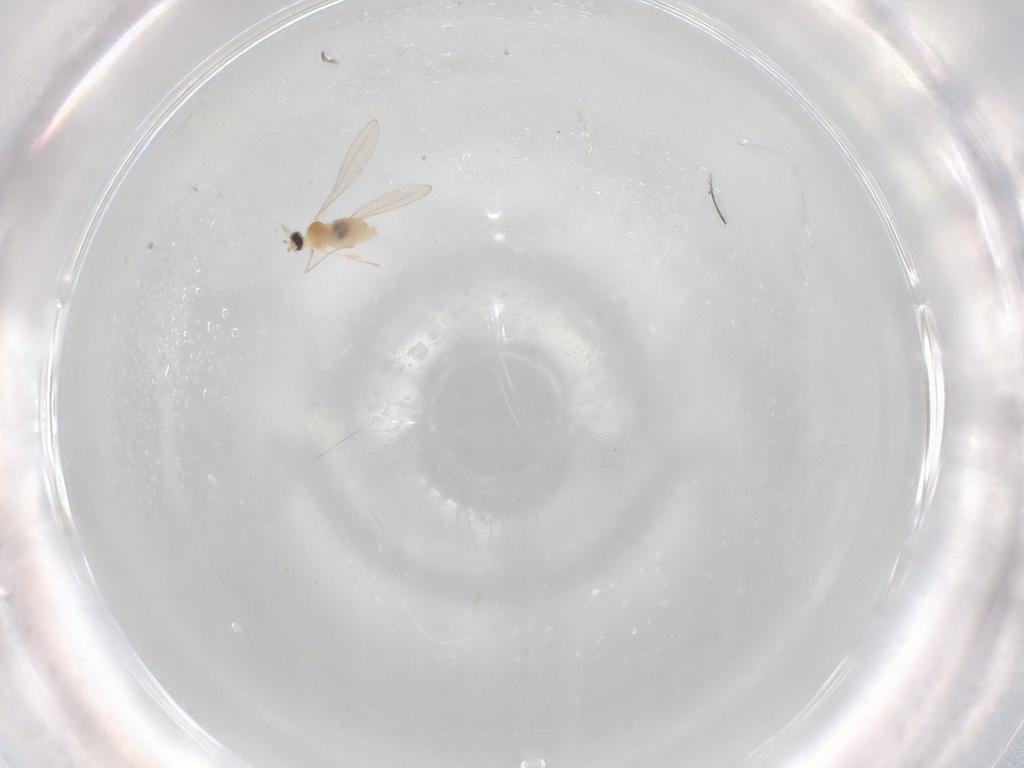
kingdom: Animalia
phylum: Arthropoda
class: Insecta
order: Diptera
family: Cecidomyiidae
